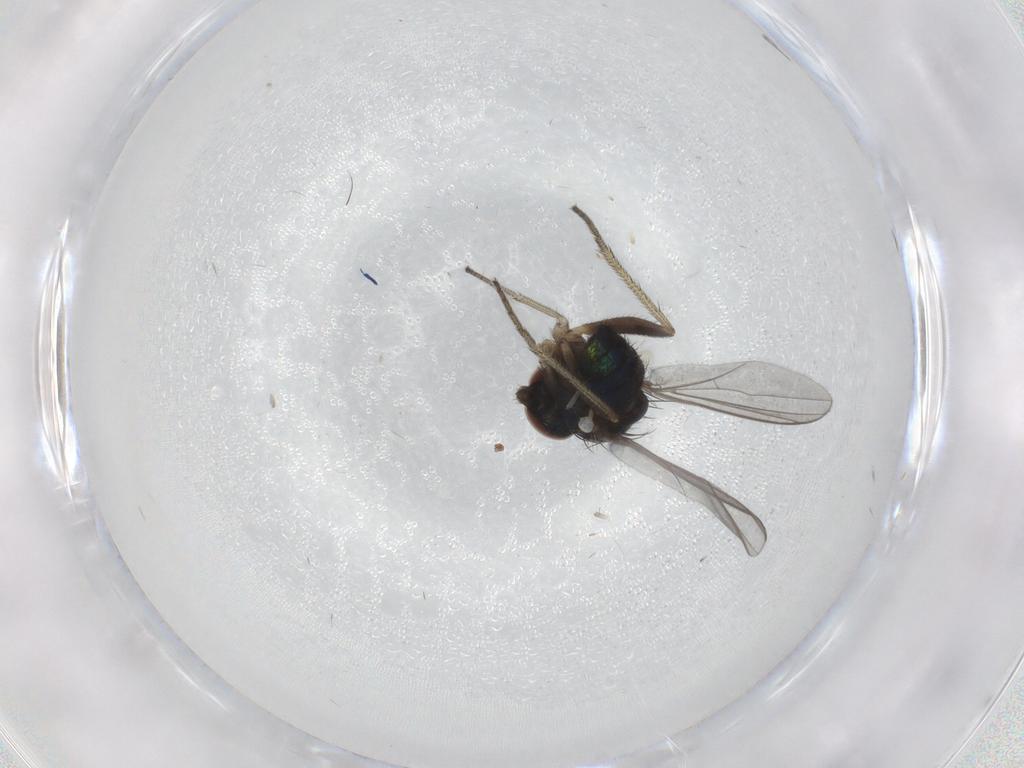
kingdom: Animalia
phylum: Arthropoda
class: Insecta
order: Diptera
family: Dolichopodidae
